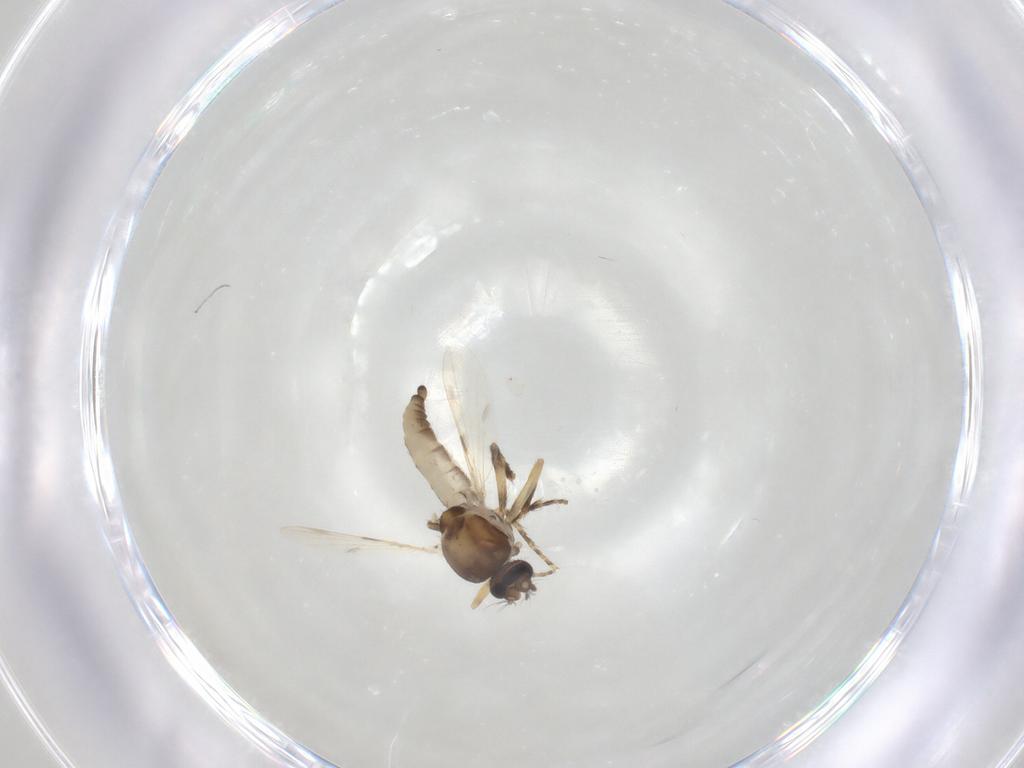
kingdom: Animalia
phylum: Arthropoda
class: Insecta
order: Diptera
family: Ceratopogonidae
